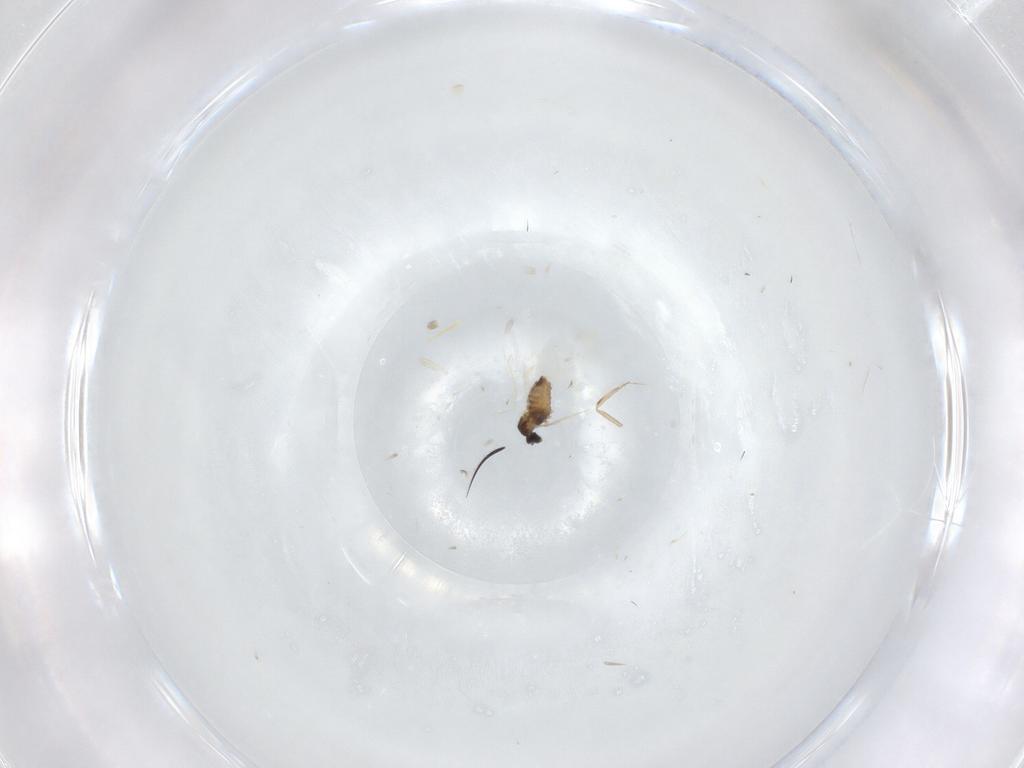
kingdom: Animalia
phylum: Arthropoda
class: Insecta
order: Diptera
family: Cecidomyiidae
